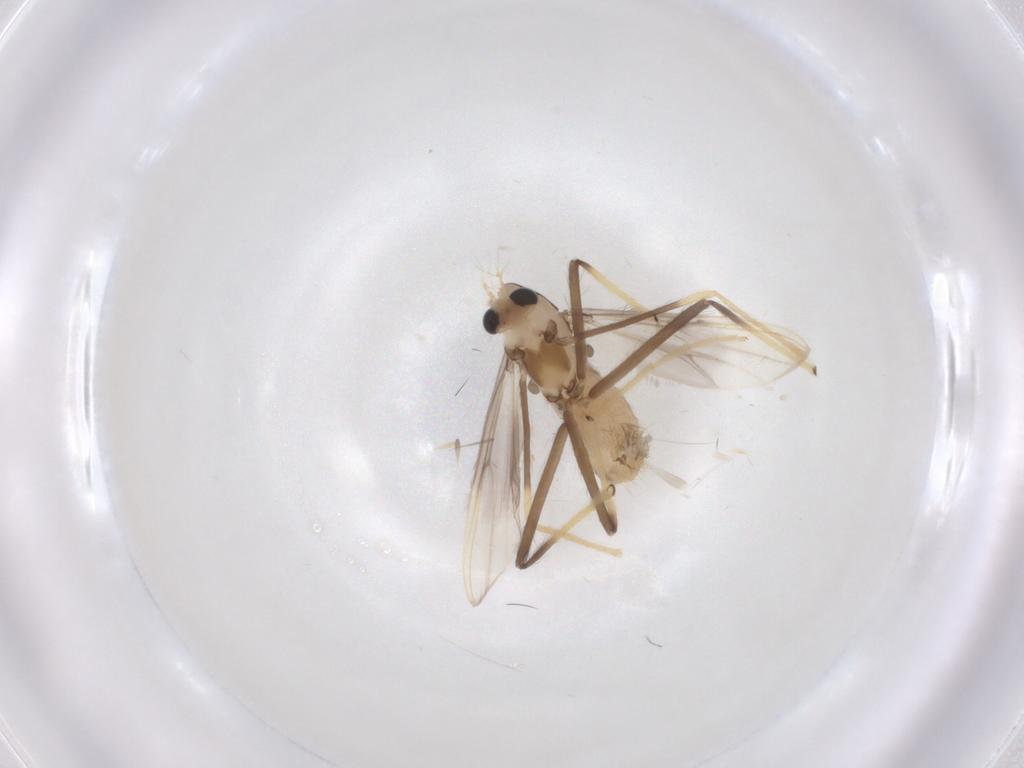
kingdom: Animalia
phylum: Arthropoda
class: Insecta
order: Diptera
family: Chironomidae
